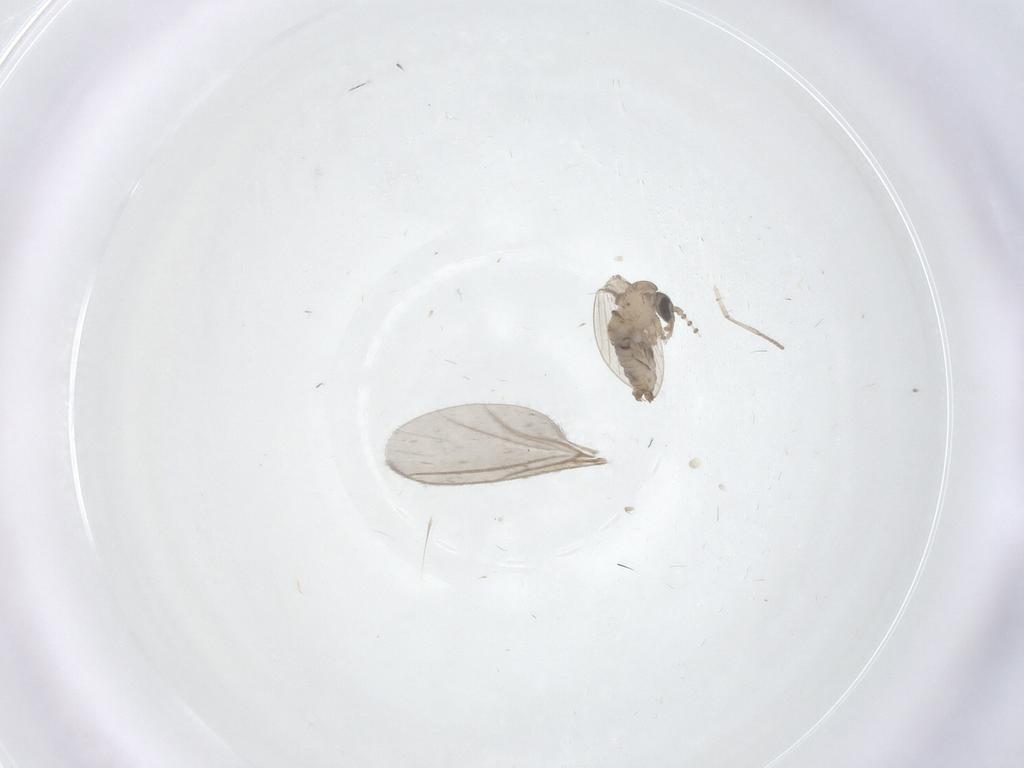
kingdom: Animalia
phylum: Arthropoda
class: Insecta
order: Diptera
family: Psychodidae
